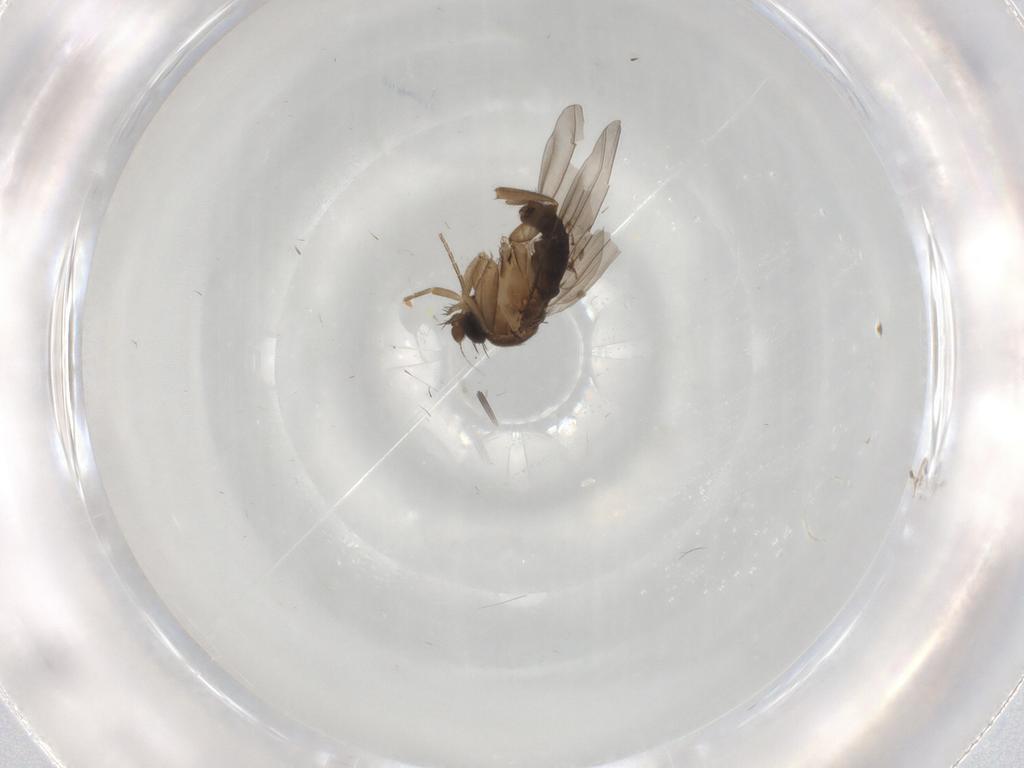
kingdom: Animalia
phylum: Arthropoda
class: Insecta
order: Diptera
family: Phoridae
